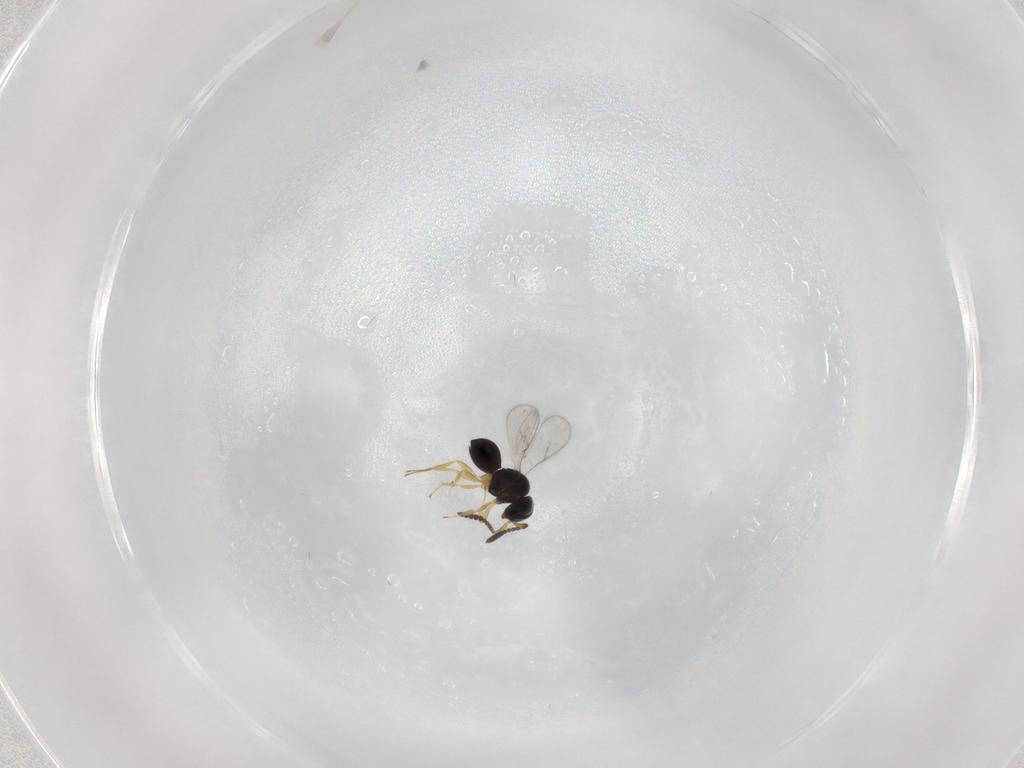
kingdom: Animalia
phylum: Arthropoda
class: Insecta
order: Hymenoptera
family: Scelionidae
